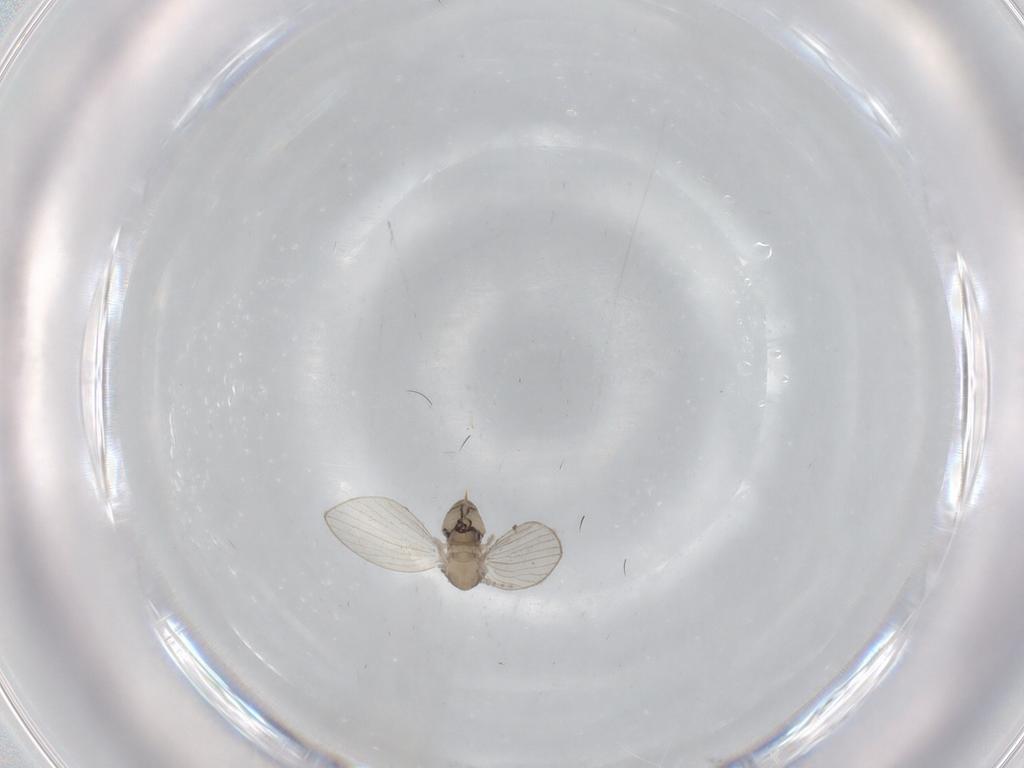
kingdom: Animalia
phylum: Arthropoda
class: Insecta
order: Diptera
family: Psychodidae
